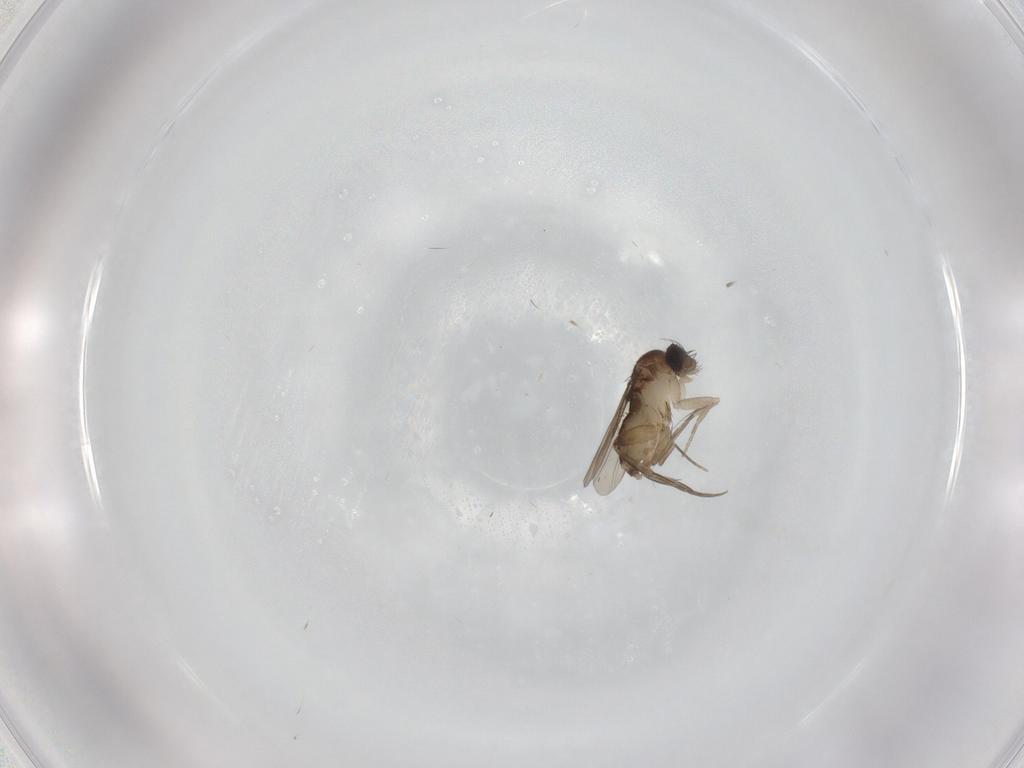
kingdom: Animalia
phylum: Arthropoda
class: Insecta
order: Diptera
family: Phoridae
